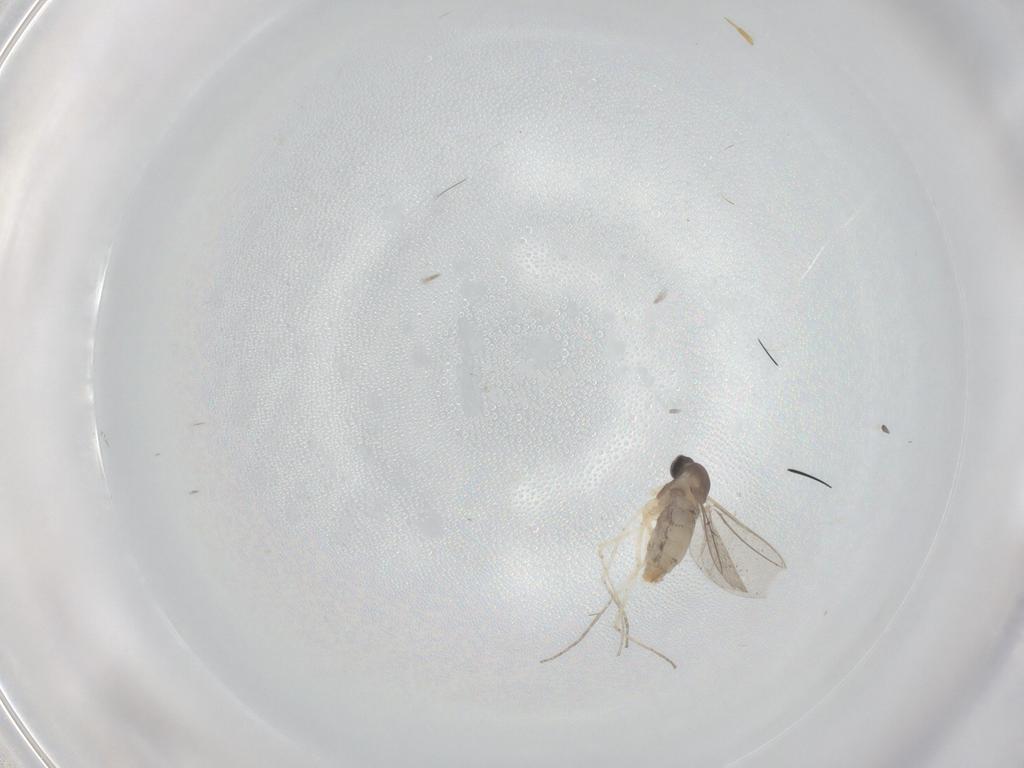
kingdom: Animalia
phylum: Arthropoda
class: Insecta
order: Diptera
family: Cecidomyiidae
